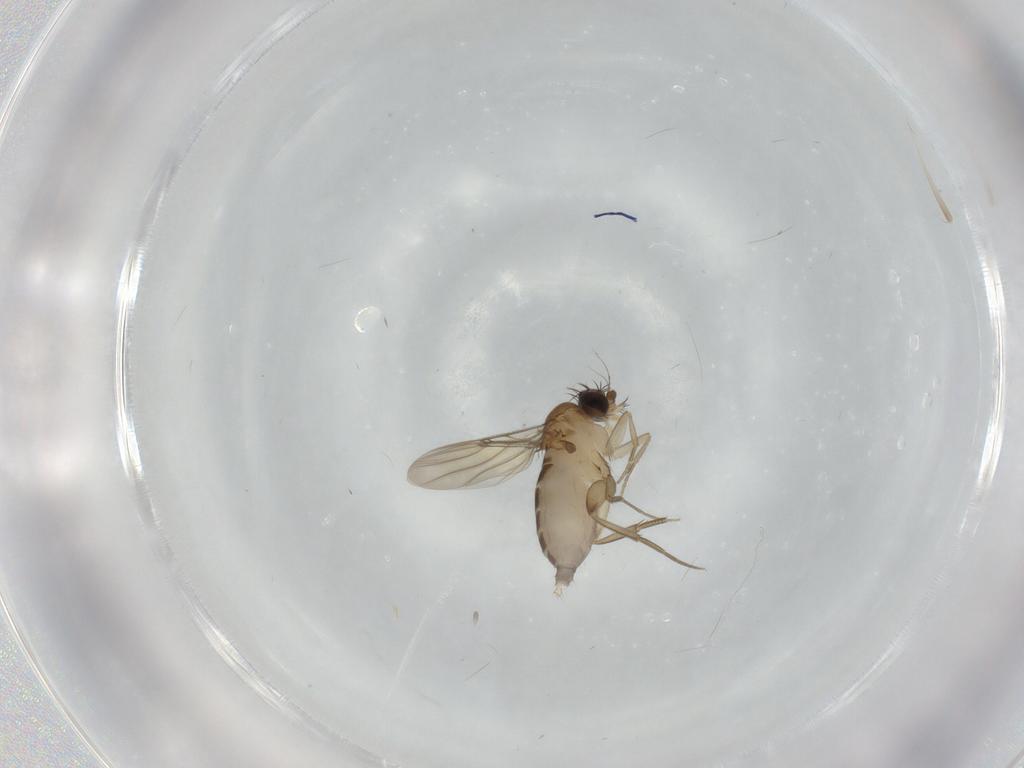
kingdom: Animalia
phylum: Arthropoda
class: Insecta
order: Diptera
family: Phoridae
